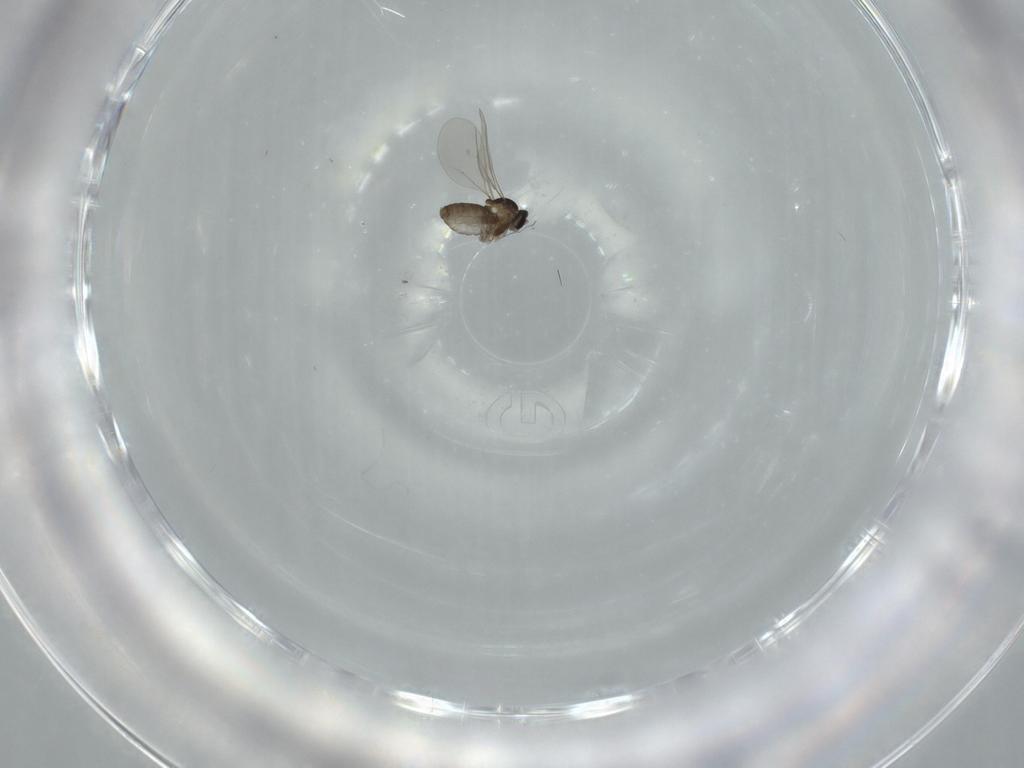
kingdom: Animalia
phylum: Arthropoda
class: Insecta
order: Diptera
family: Cecidomyiidae
